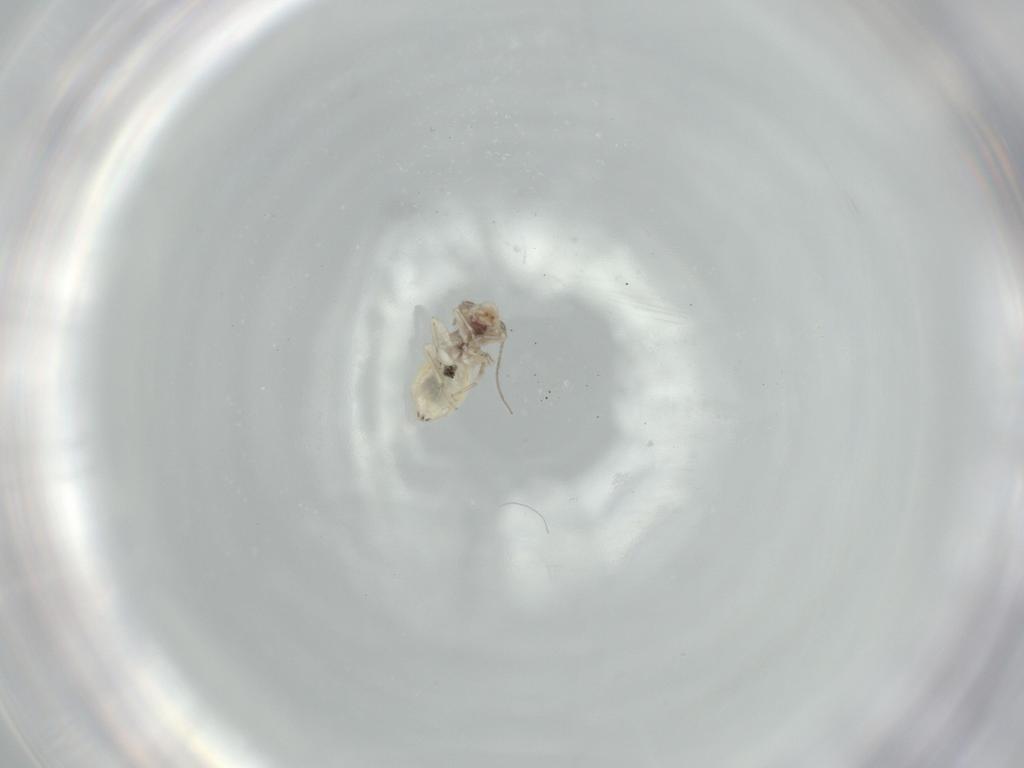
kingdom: Animalia
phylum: Arthropoda
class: Insecta
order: Psocodea
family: Lepidopsocidae
